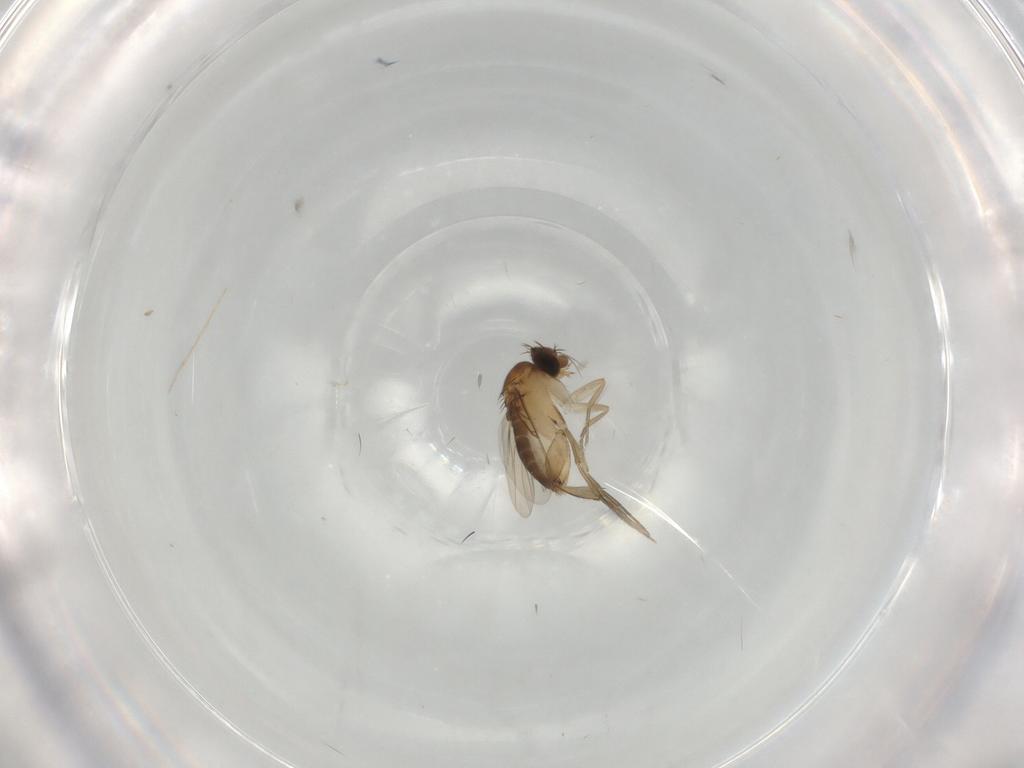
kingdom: Animalia
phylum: Arthropoda
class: Insecta
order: Diptera
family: Phoridae
